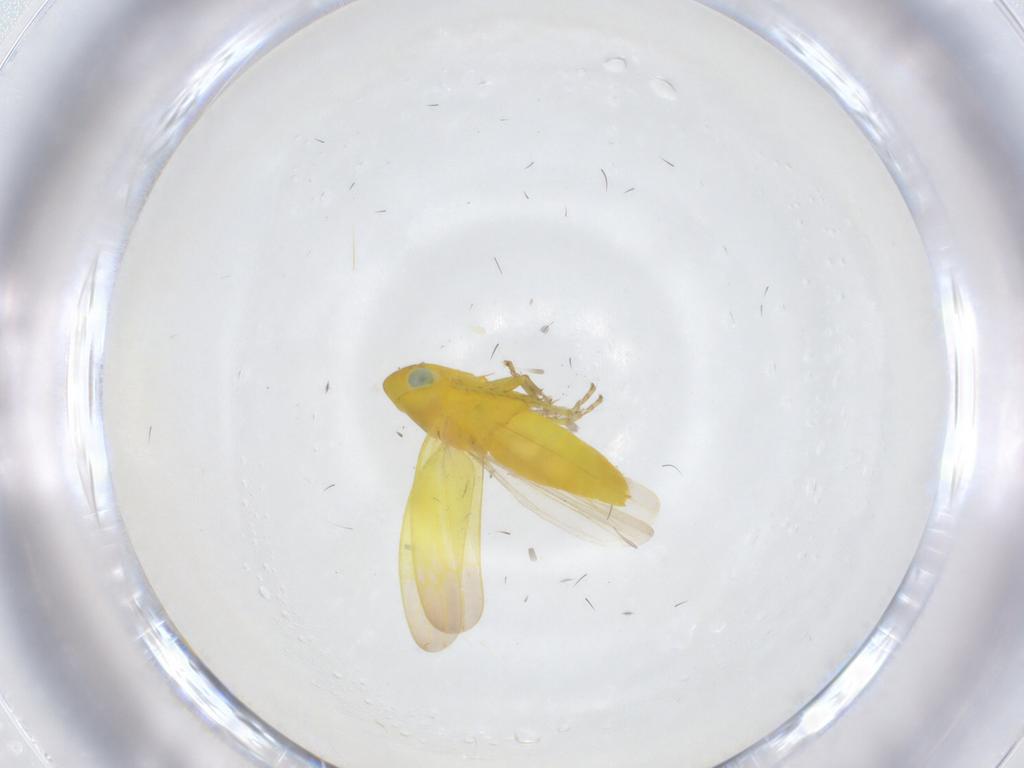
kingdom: Animalia
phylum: Arthropoda
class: Insecta
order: Hemiptera
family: Cicadellidae
